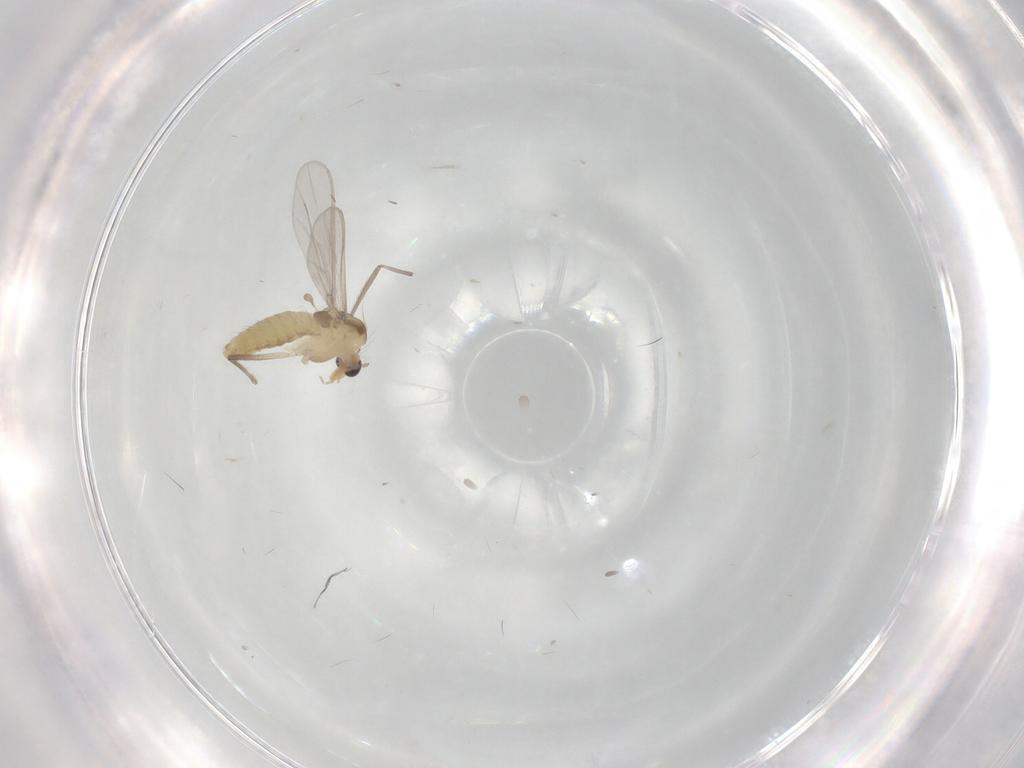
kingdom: Animalia
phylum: Arthropoda
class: Insecta
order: Diptera
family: Chironomidae
